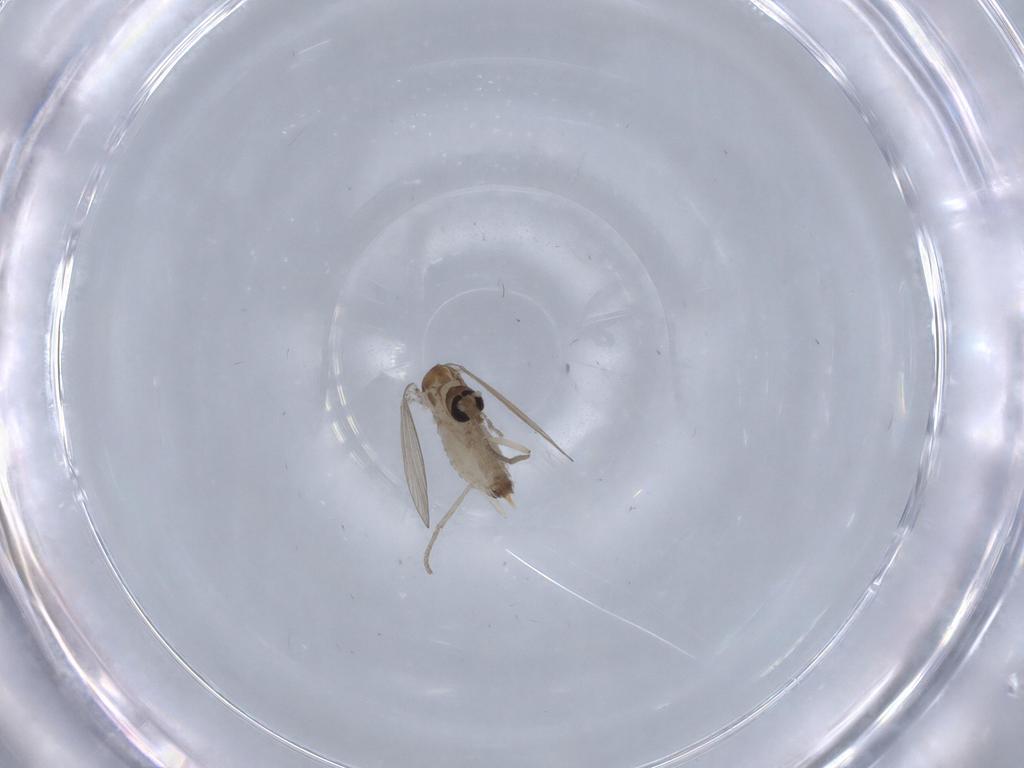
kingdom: Animalia
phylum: Arthropoda
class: Insecta
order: Diptera
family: Psychodidae
